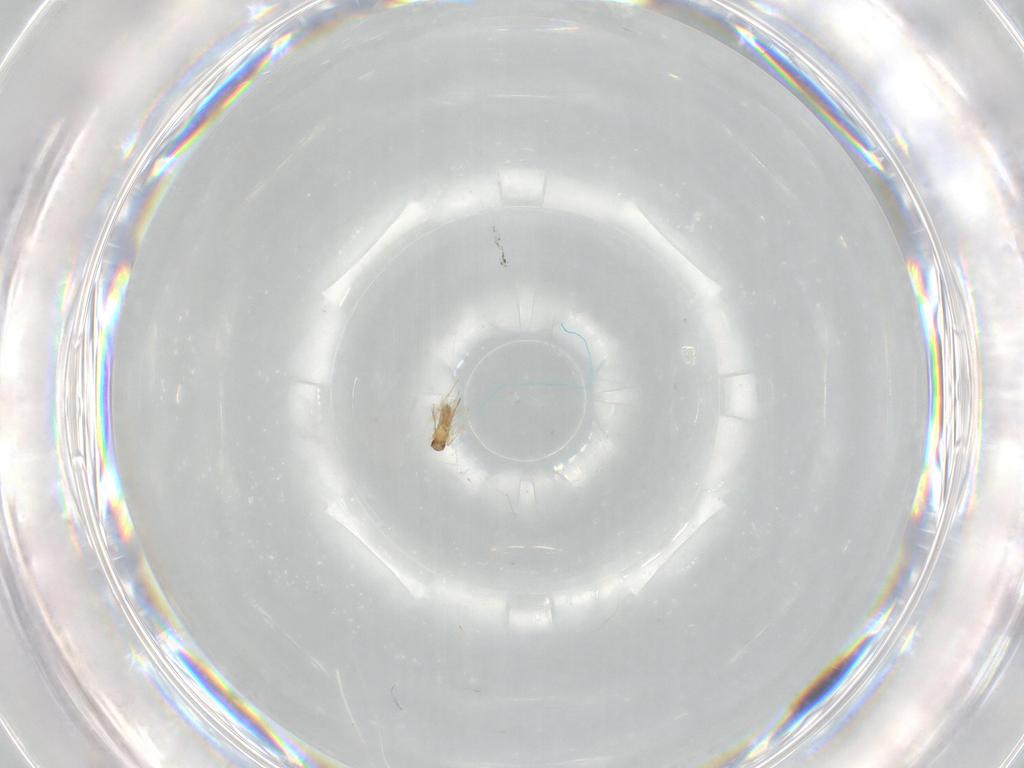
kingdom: Animalia
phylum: Arthropoda
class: Insecta
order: Hymenoptera
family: Mymaridae
